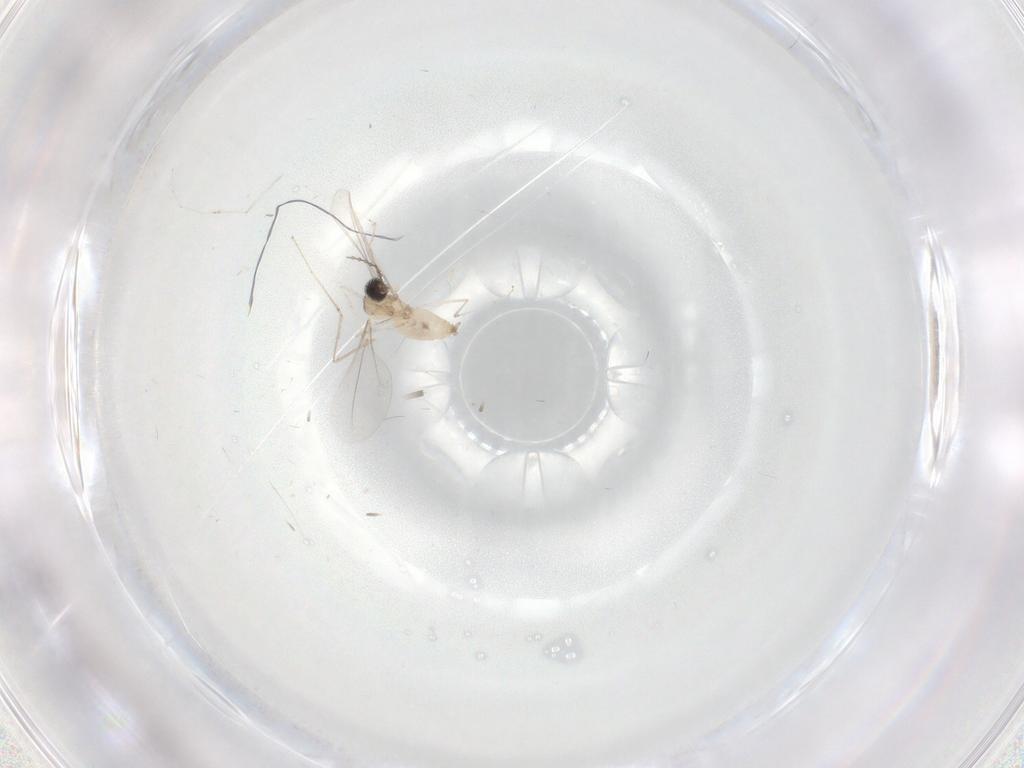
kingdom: Animalia
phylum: Arthropoda
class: Insecta
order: Diptera
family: Cecidomyiidae
